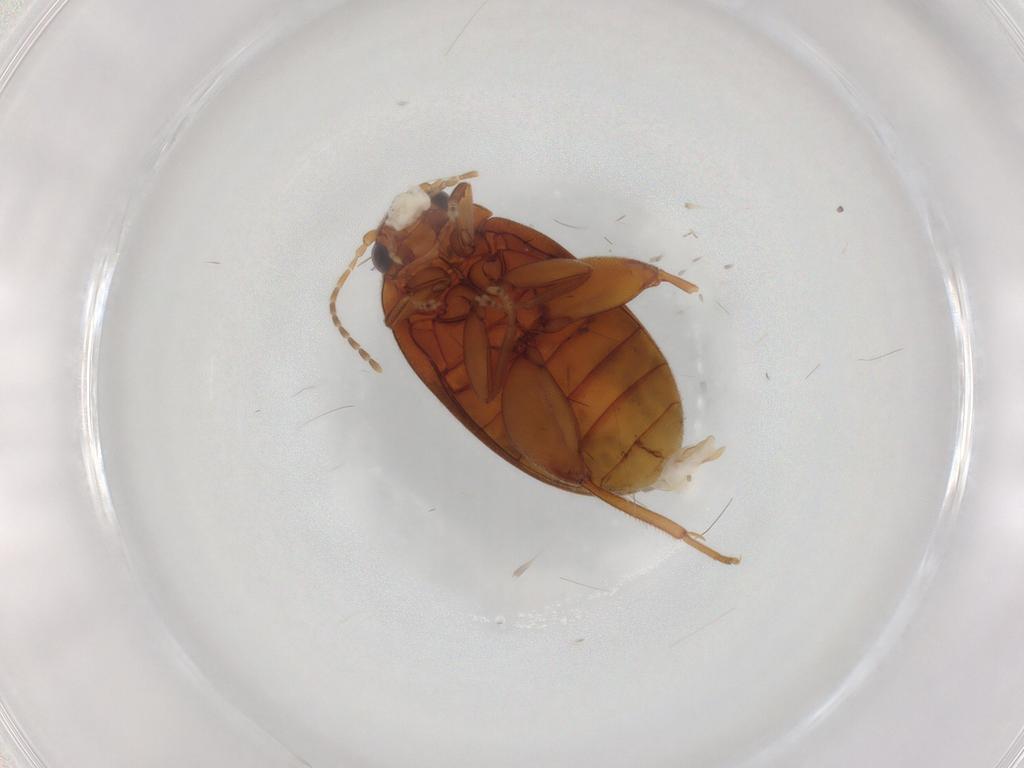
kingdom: Animalia
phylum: Arthropoda
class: Insecta
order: Coleoptera
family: Scirtidae
